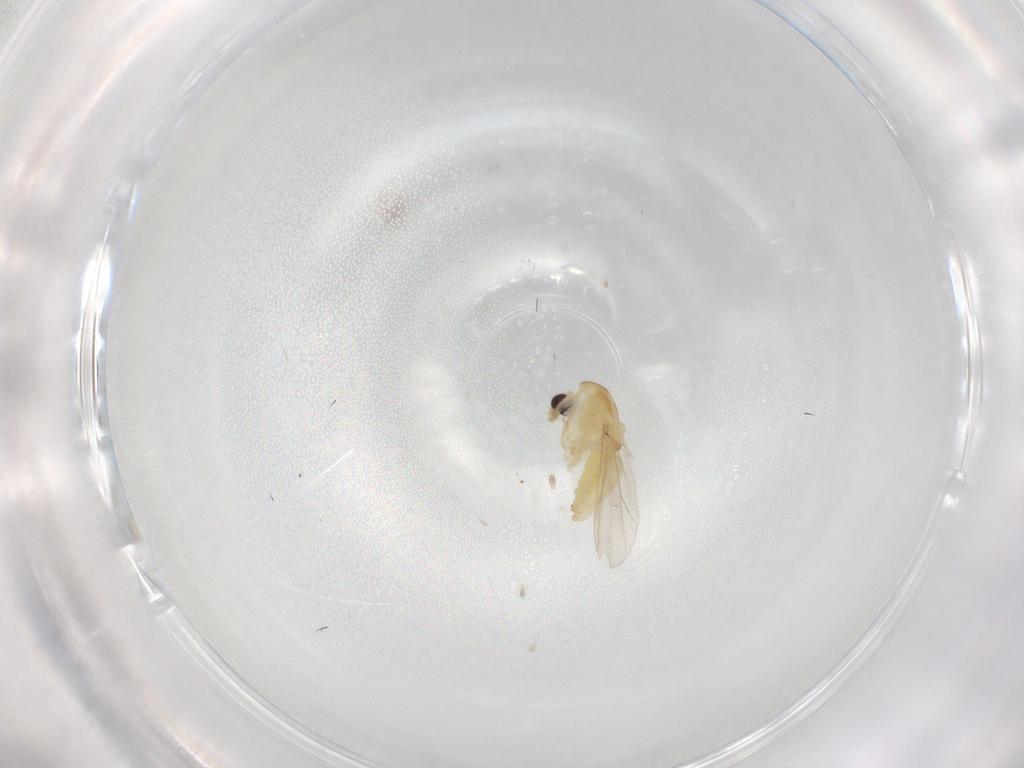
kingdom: Animalia
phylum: Arthropoda
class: Insecta
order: Diptera
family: Chironomidae
